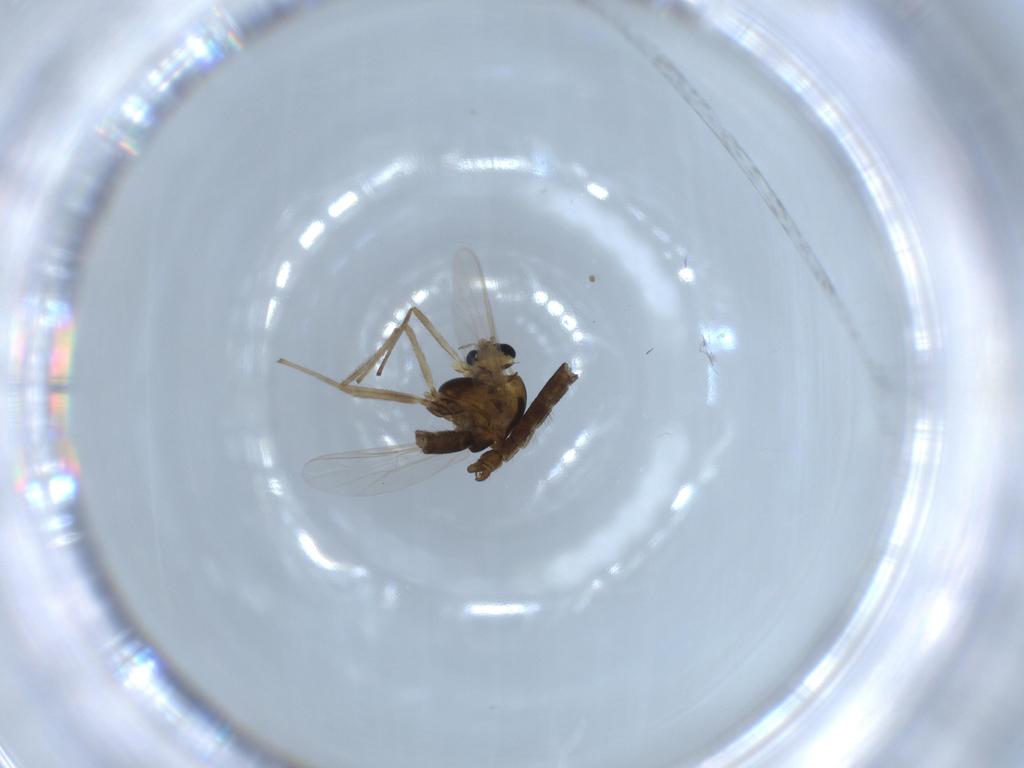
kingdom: Animalia
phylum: Arthropoda
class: Insecta
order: Diptera
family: Chironomidae
